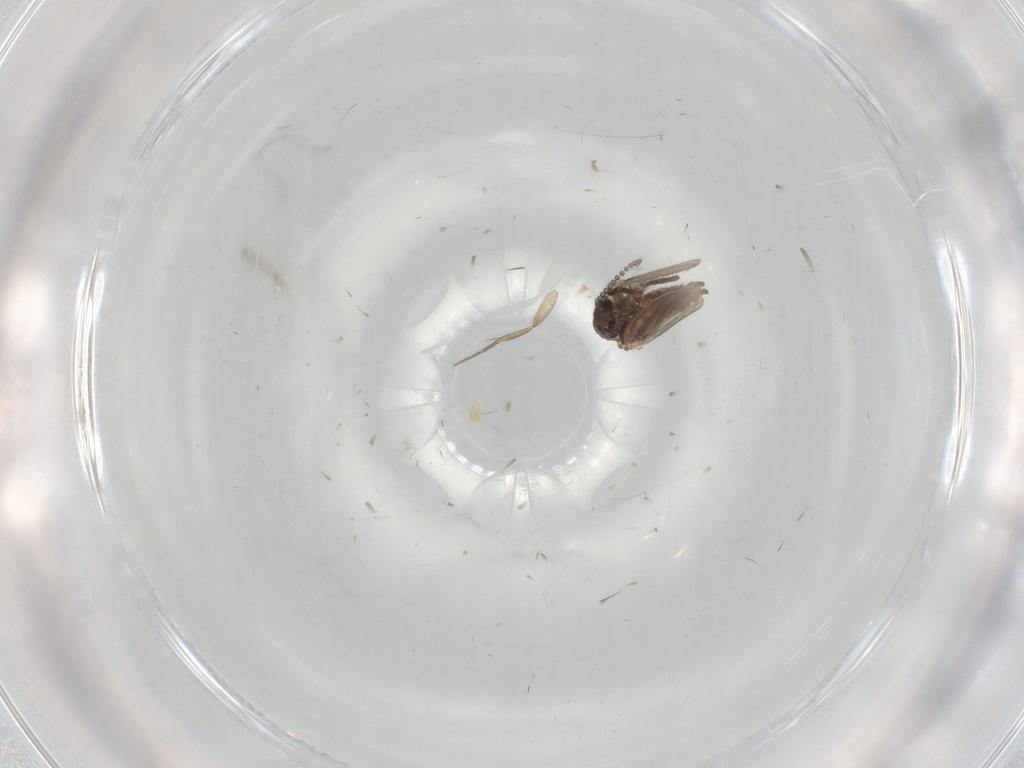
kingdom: Animalia
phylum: Arthropoda
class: Insecta
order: Diptera
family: Psychodidae
